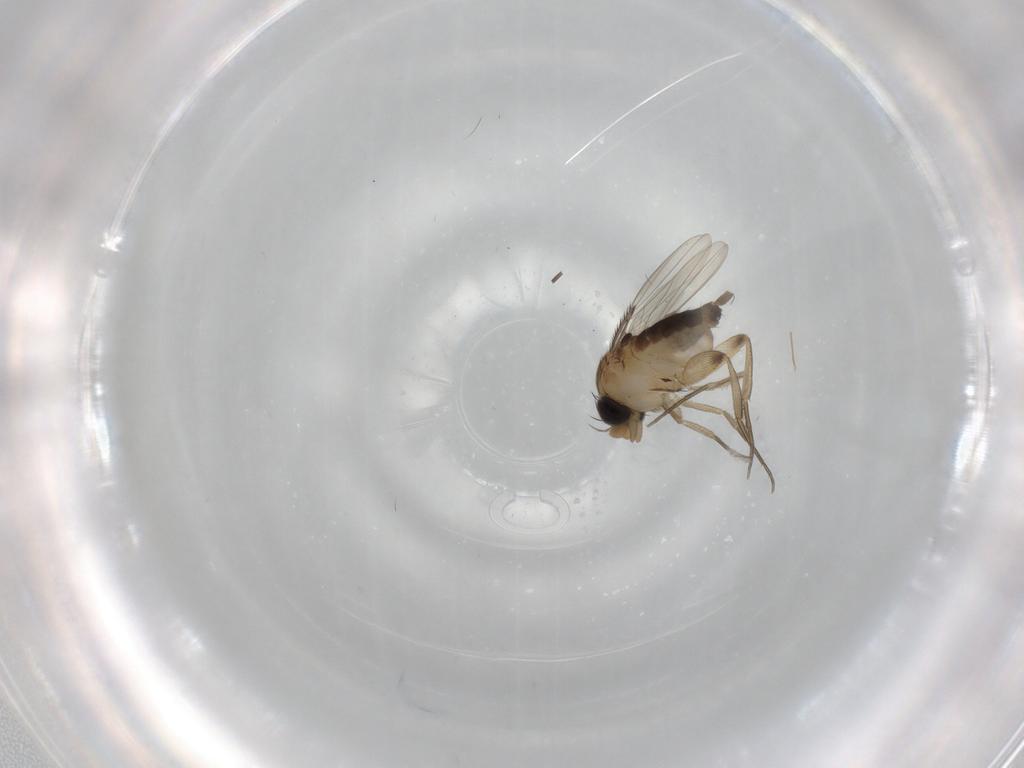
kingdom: Animalia
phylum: Arthropoda
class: Insecta
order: Diptera
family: Phoridae
